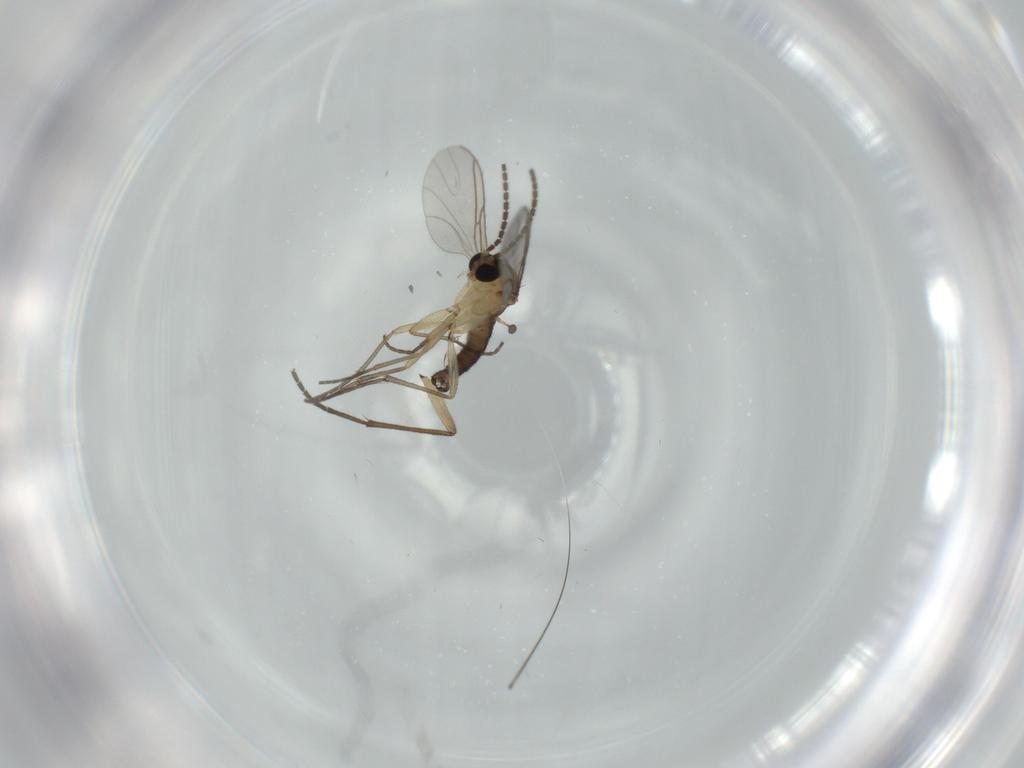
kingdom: Animalia
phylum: Arthropoda
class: Insecta
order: Diptera
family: Sciaridae
